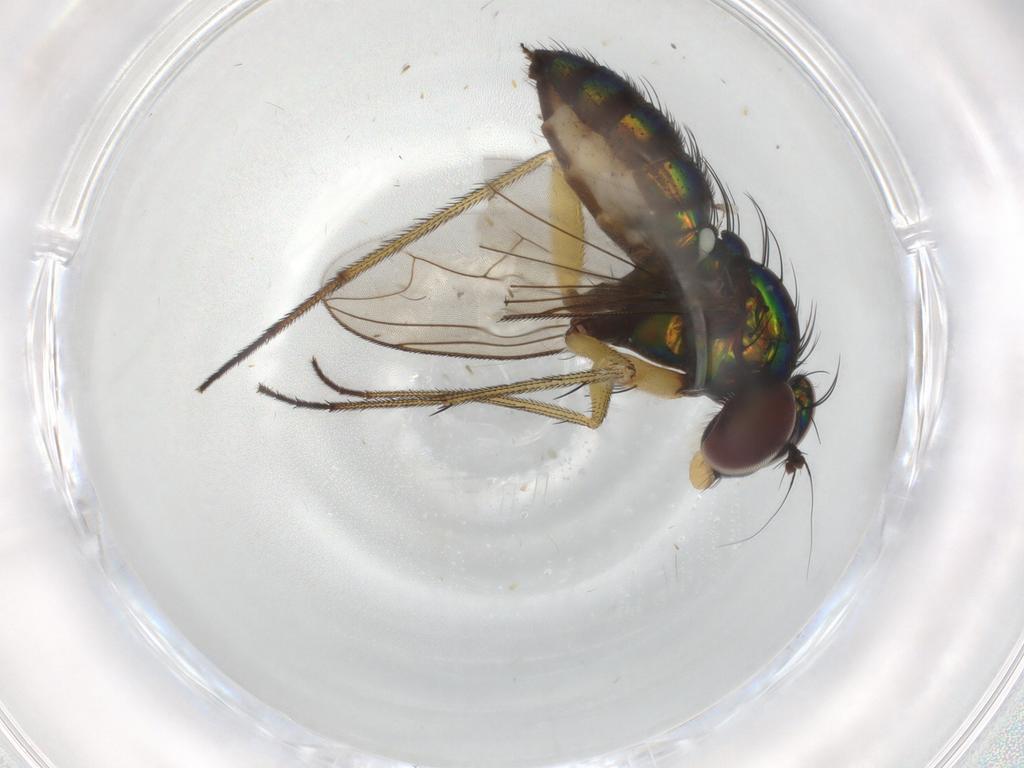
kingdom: Animalia
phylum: Arthropoda
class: Insecta
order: Diptera
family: Dolichopodidae
